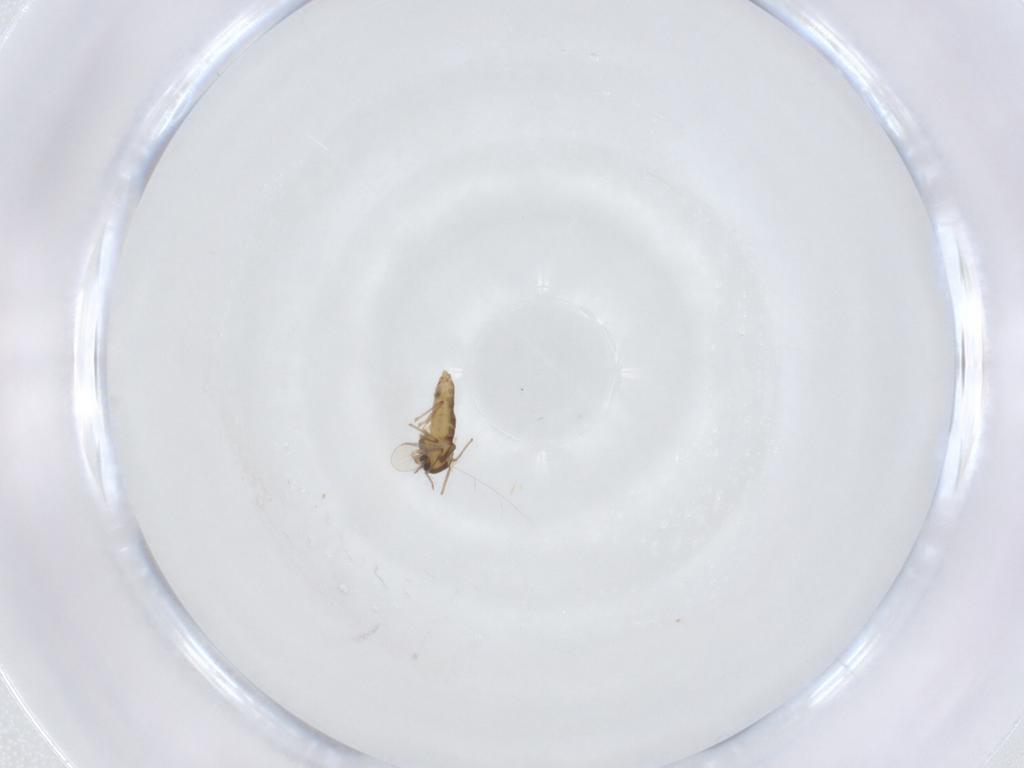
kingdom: Animalia
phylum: Arthropoda
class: Insecta
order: Diptera
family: Chironomidae
